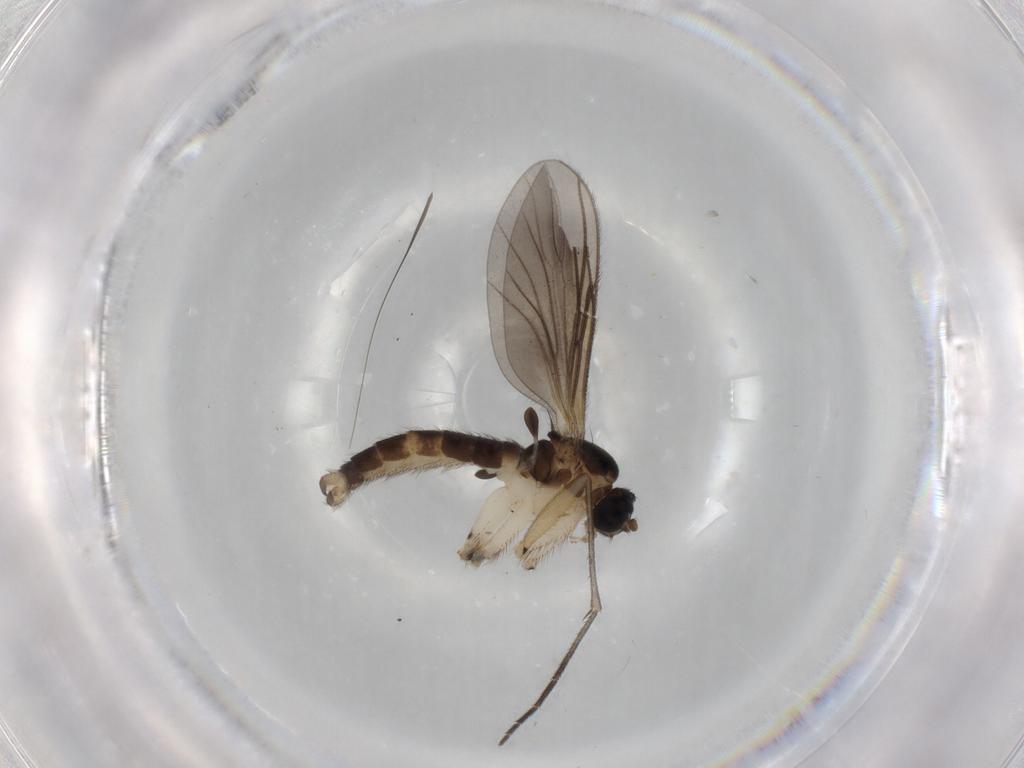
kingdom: Animalia
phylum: Arthropoda
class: Insecta
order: Diptera
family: Sciaridae
